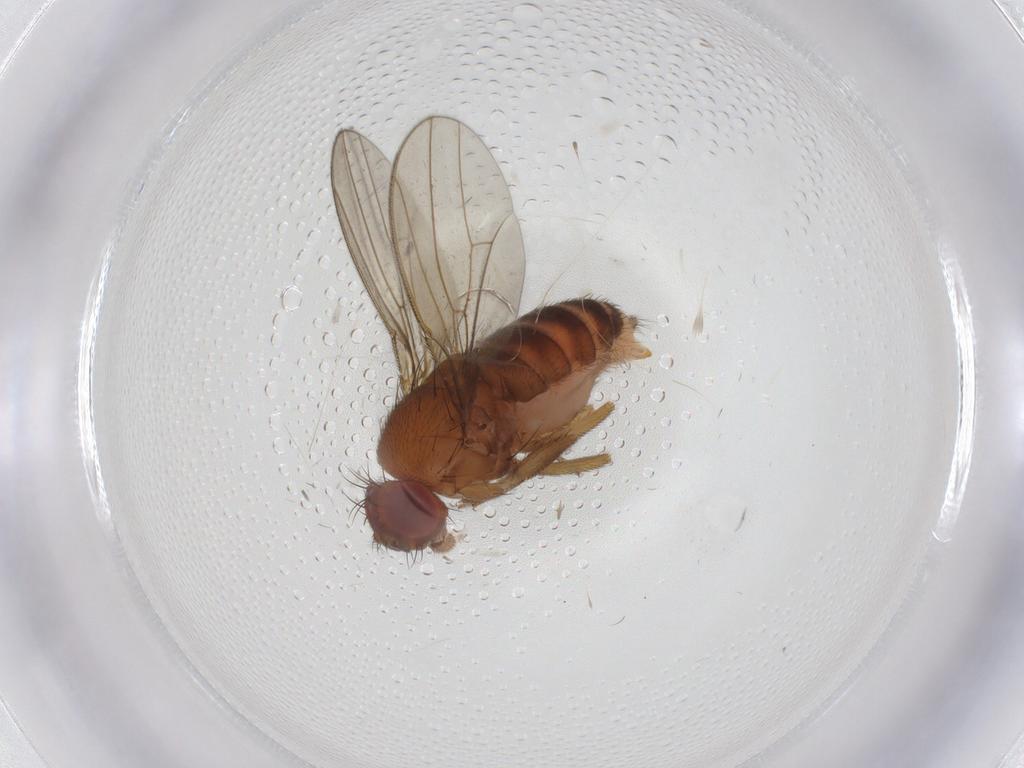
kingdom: Animalia
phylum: Arthropoda
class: Insecta
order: Diptera
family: Drosophilidae
